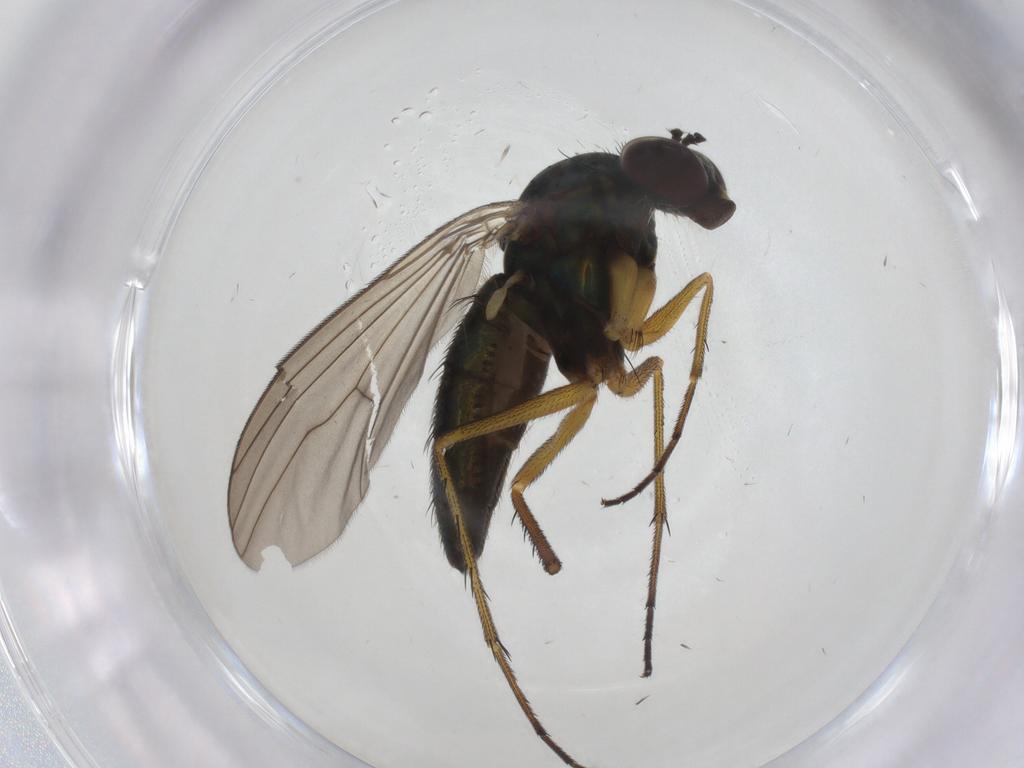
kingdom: Animalia
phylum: Arthropoda
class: Insecta
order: Diptera
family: Dolichopodidae
